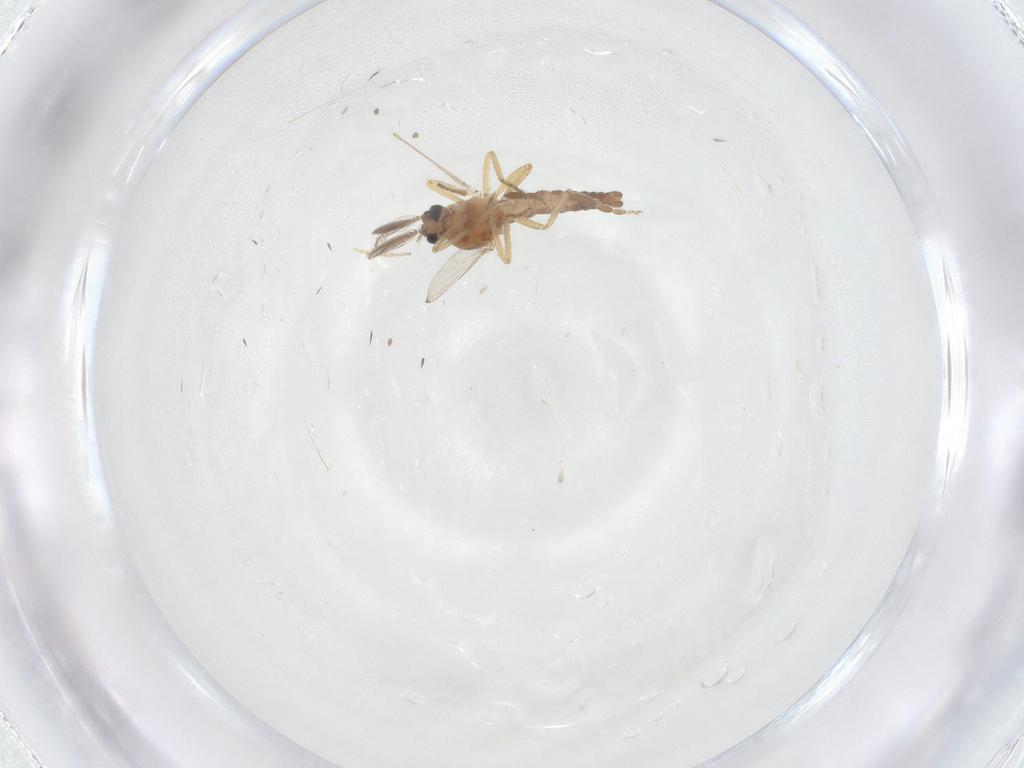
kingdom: Animalia
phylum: Arthropoda
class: Insecta
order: Diptera
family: Ceratopogonidae
